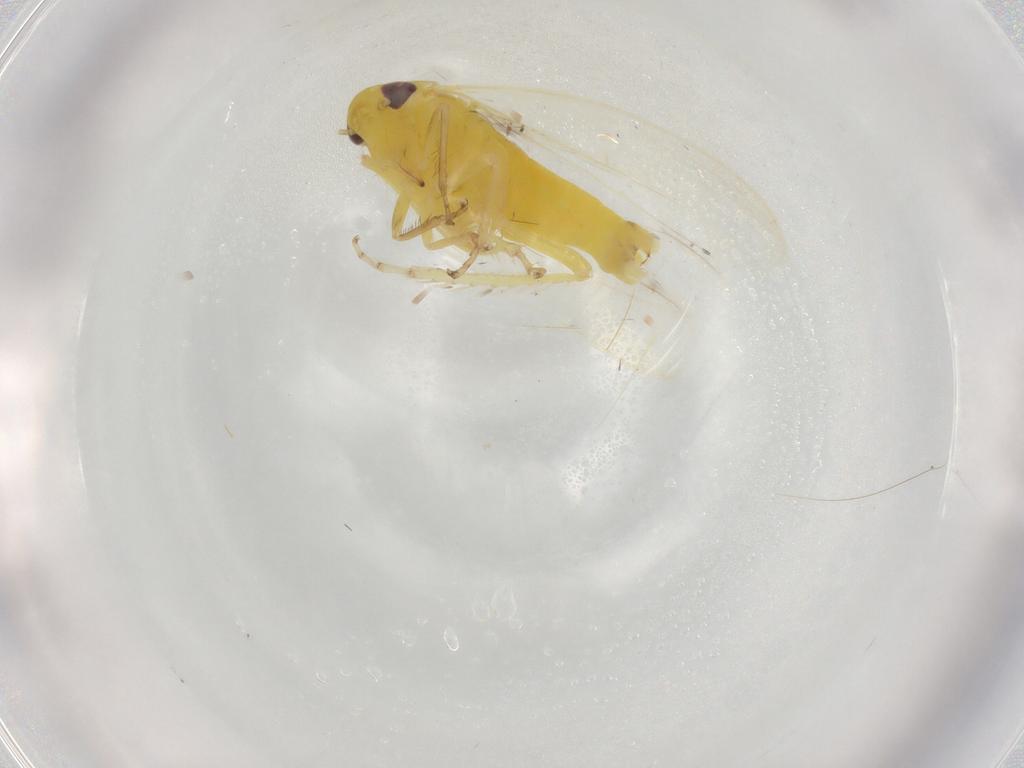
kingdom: Animalia
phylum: Arthropoda
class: Insecta
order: Hemiptera
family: Cicadellidae
